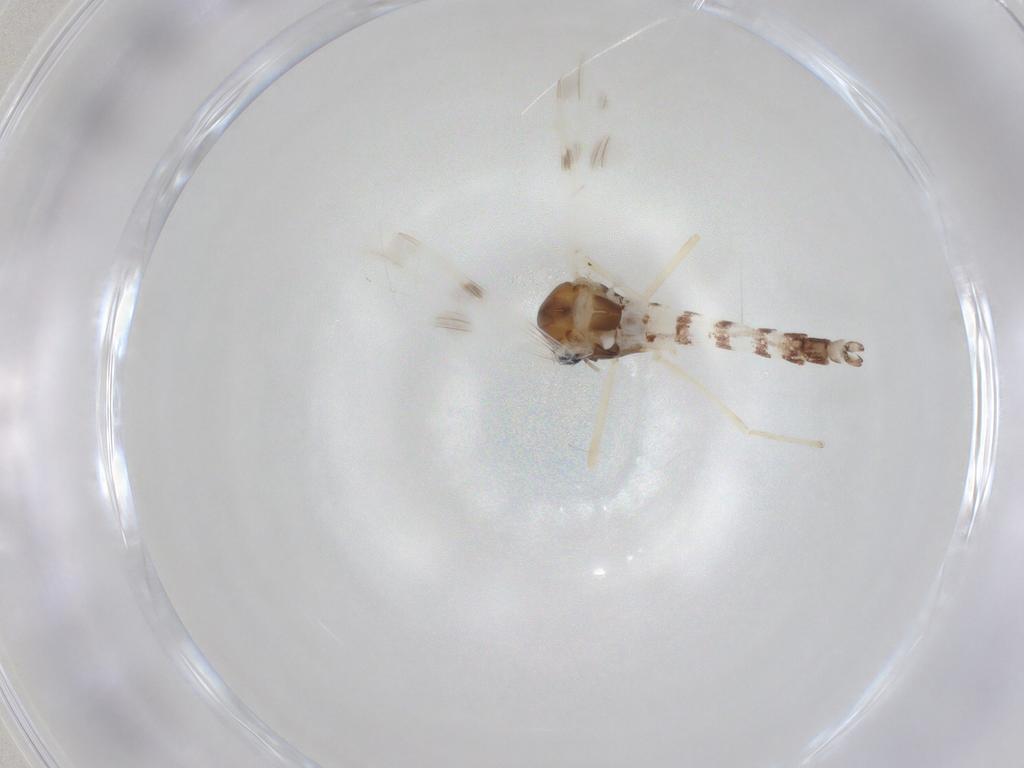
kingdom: Animalia
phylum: Arthropoda
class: Insecta
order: Diptera
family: Chironomidae
